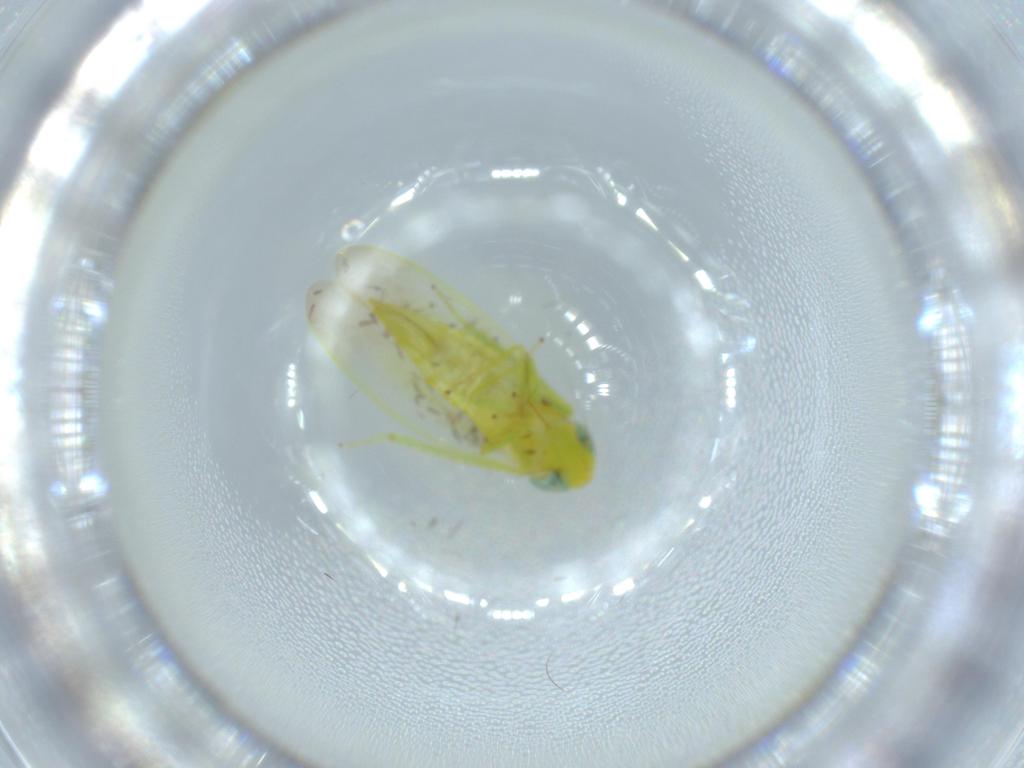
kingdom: Animalia
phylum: Arthropoda
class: Insecta
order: Hemiptera
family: Cicadellidae
